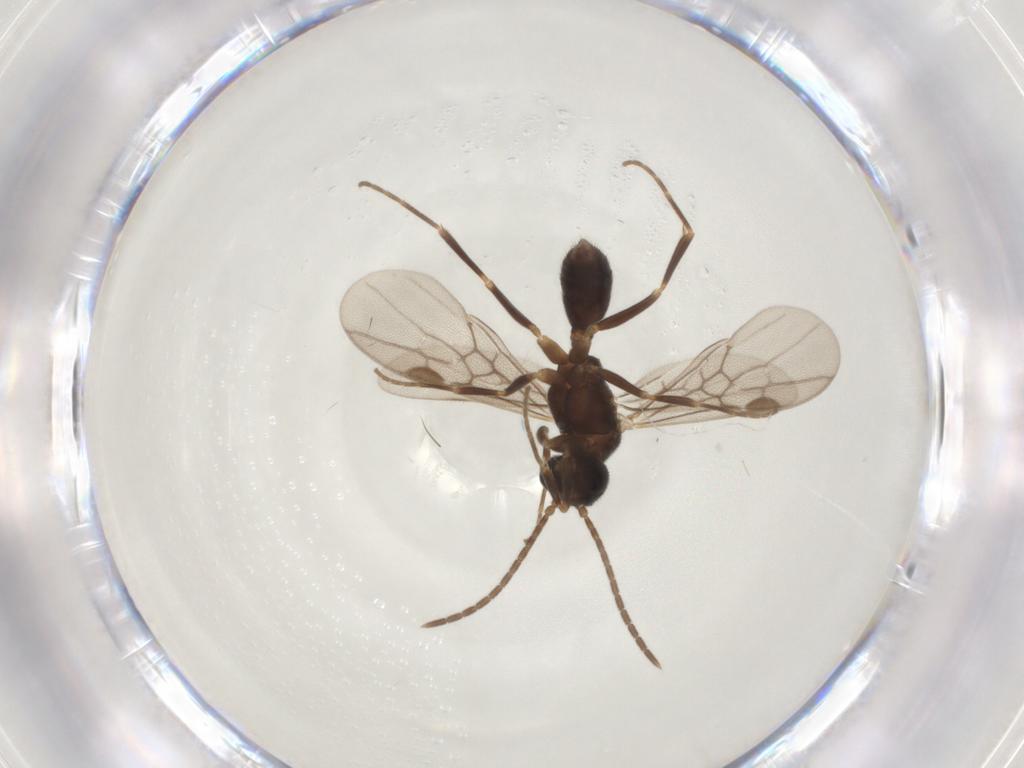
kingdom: Animalia
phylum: Arthropoda
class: Insecta
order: Hymenoptera
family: Formicidae
